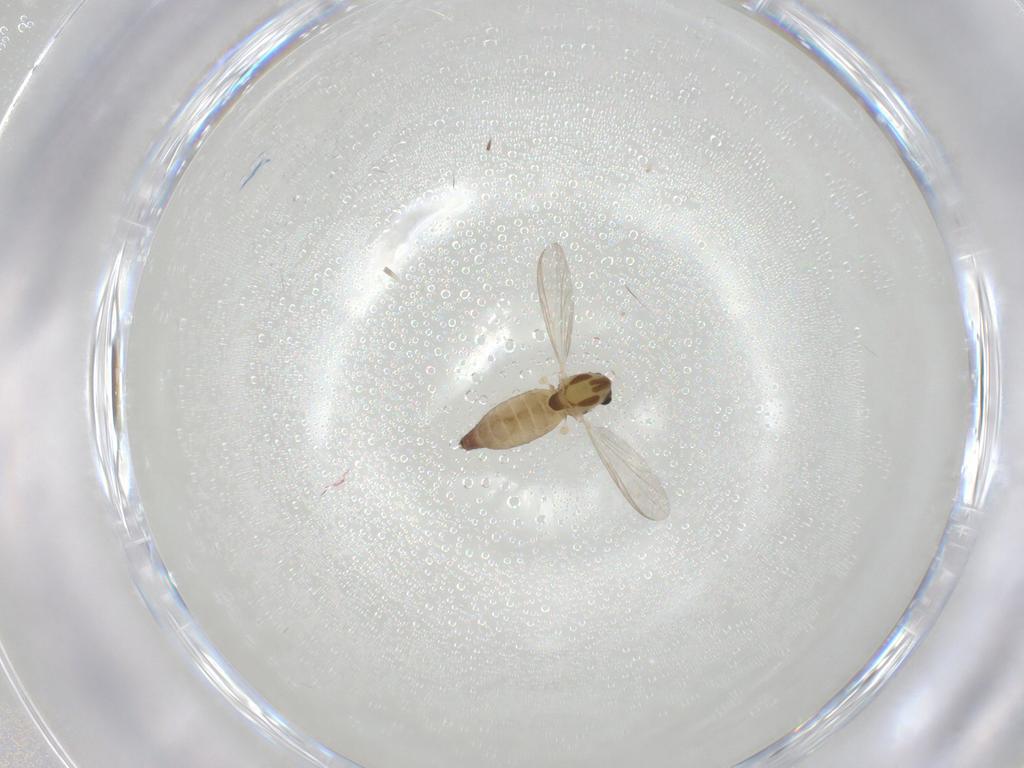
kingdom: Animalia
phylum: Arthropoda
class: Insecta
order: Diptera
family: Chironomidae
